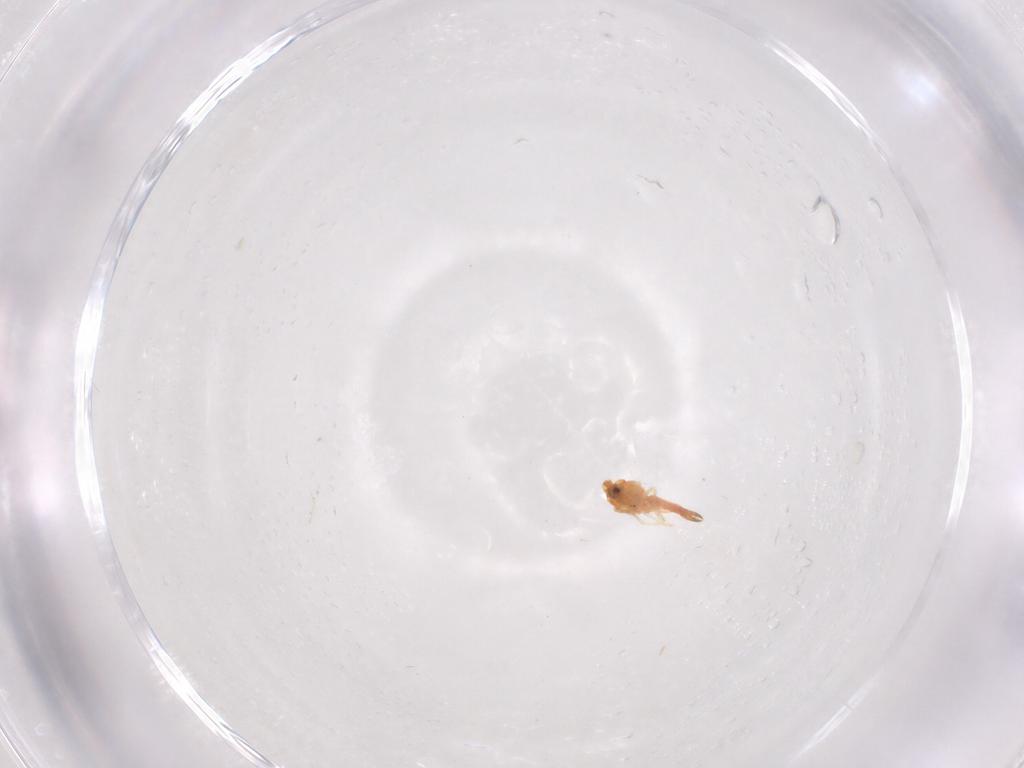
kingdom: Animalia
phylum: Arthropoda
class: Insecta
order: Hemiptera
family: Aleyrodidae
